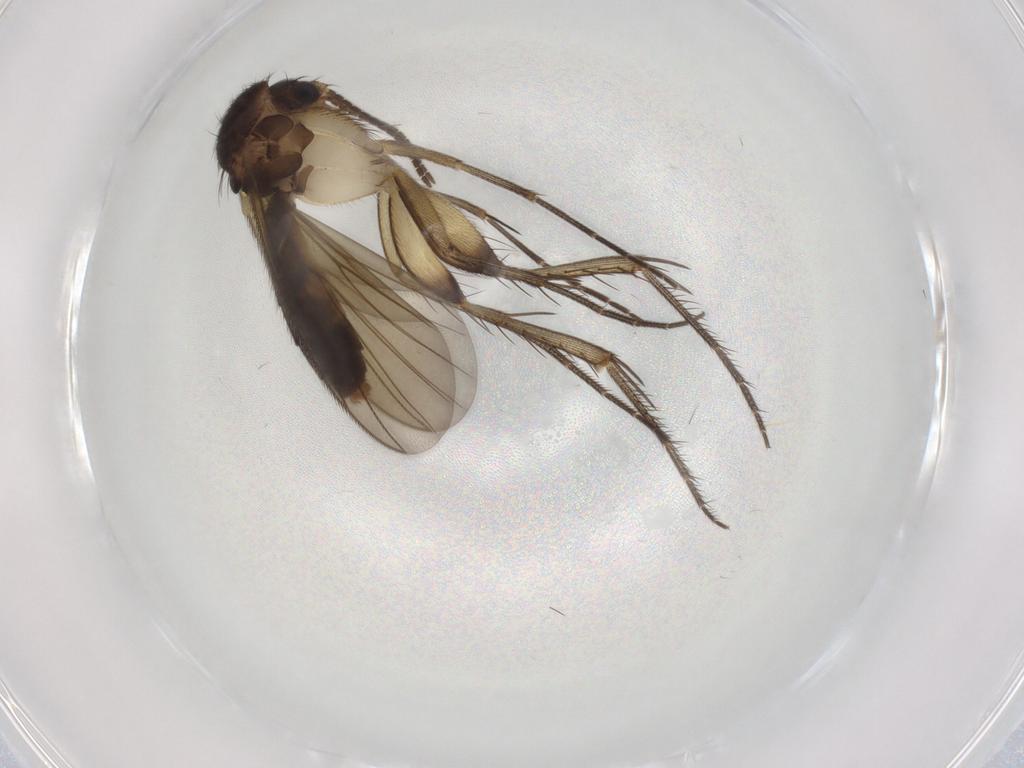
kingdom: Animalia
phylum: Arthropoda
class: Insecta
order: Diptera
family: Mycetophilidae
